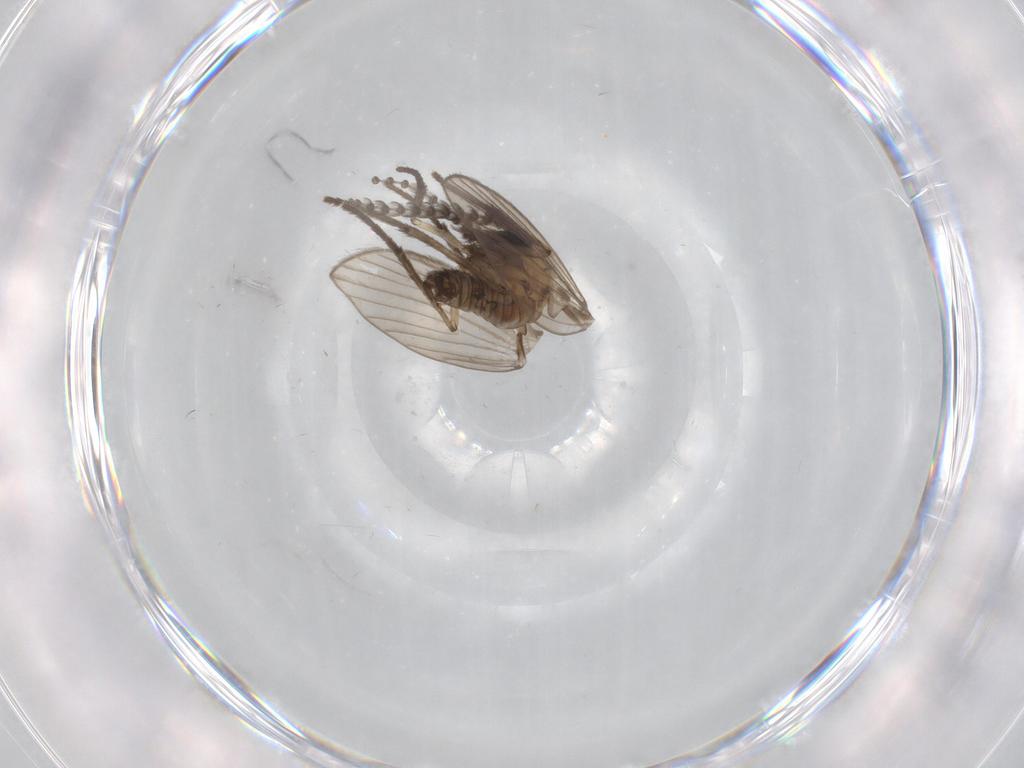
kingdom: Animalia
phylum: Arthropoda
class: Insecta
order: Diptera
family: Psychodidae
